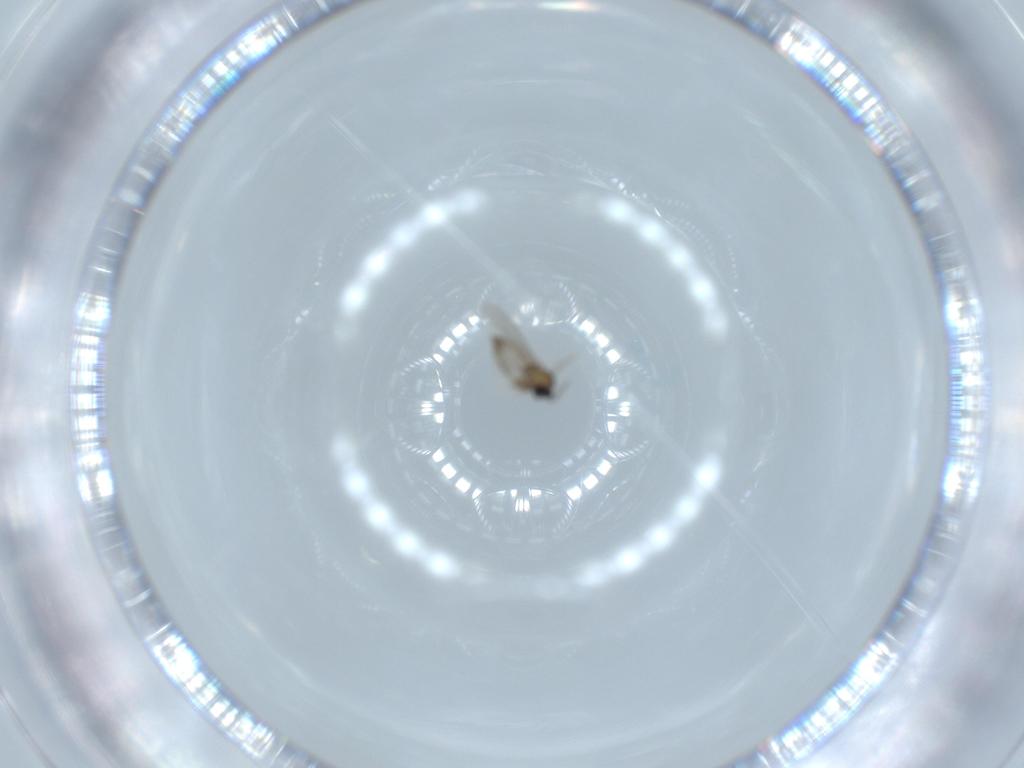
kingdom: Animalia
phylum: Arthropoda
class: Insecta
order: Diptera
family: Cecidomyiidae
